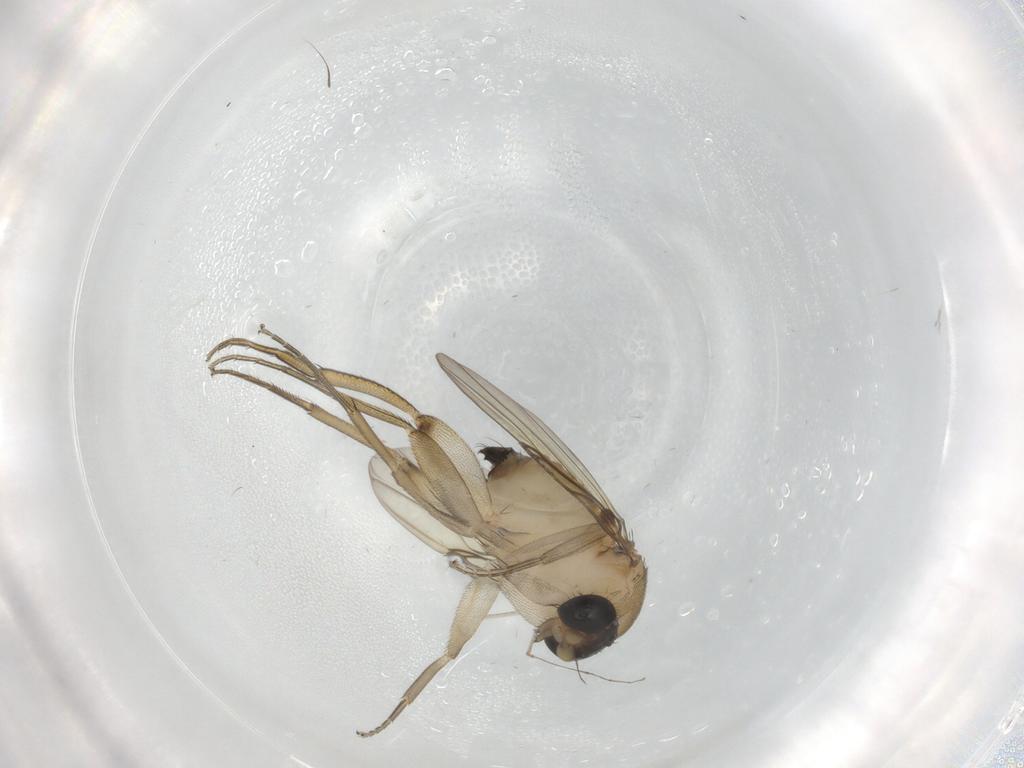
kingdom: Animalia
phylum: Arthropoda
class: Insecta
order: Diptera
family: Phoridae
